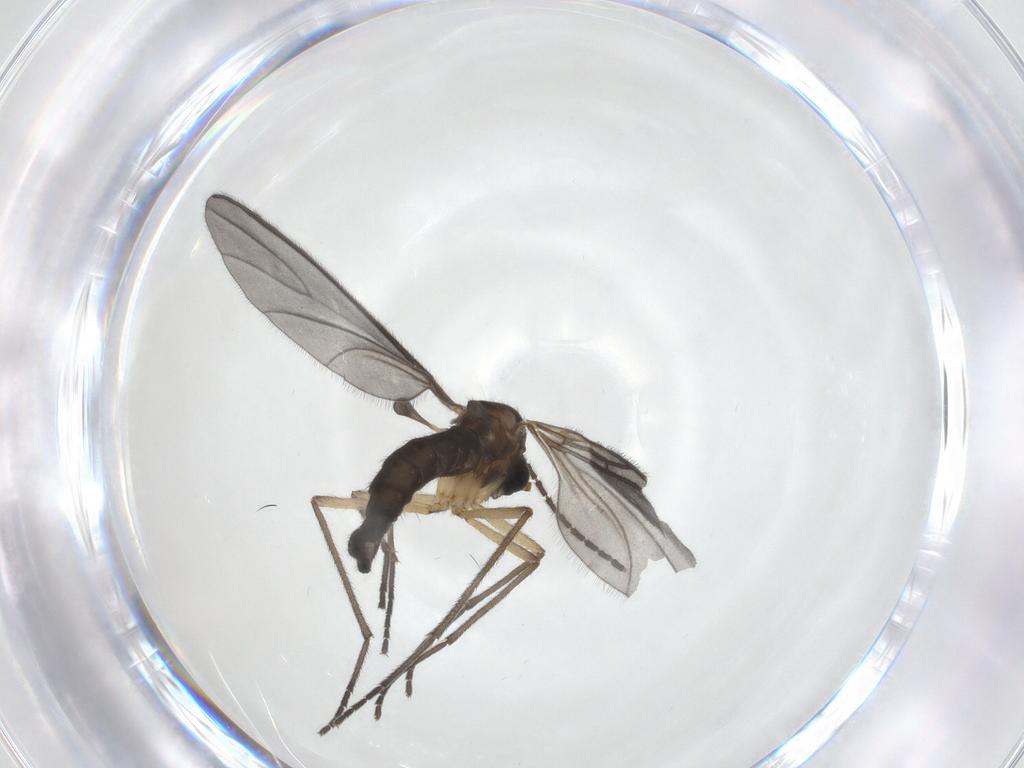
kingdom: Animalia
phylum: Arthropoda
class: Insecta
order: Diptera
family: Sciaridae
